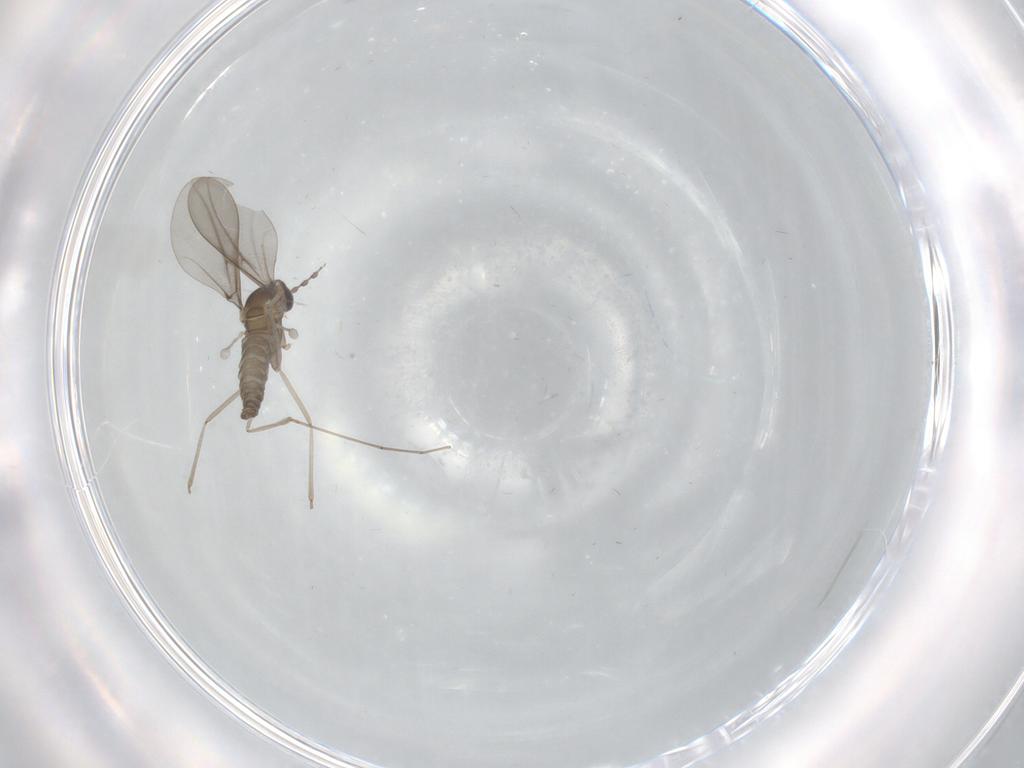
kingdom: Animalia
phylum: Arthropoda
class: Insecta
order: Diptera
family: Cecidomyiidae
